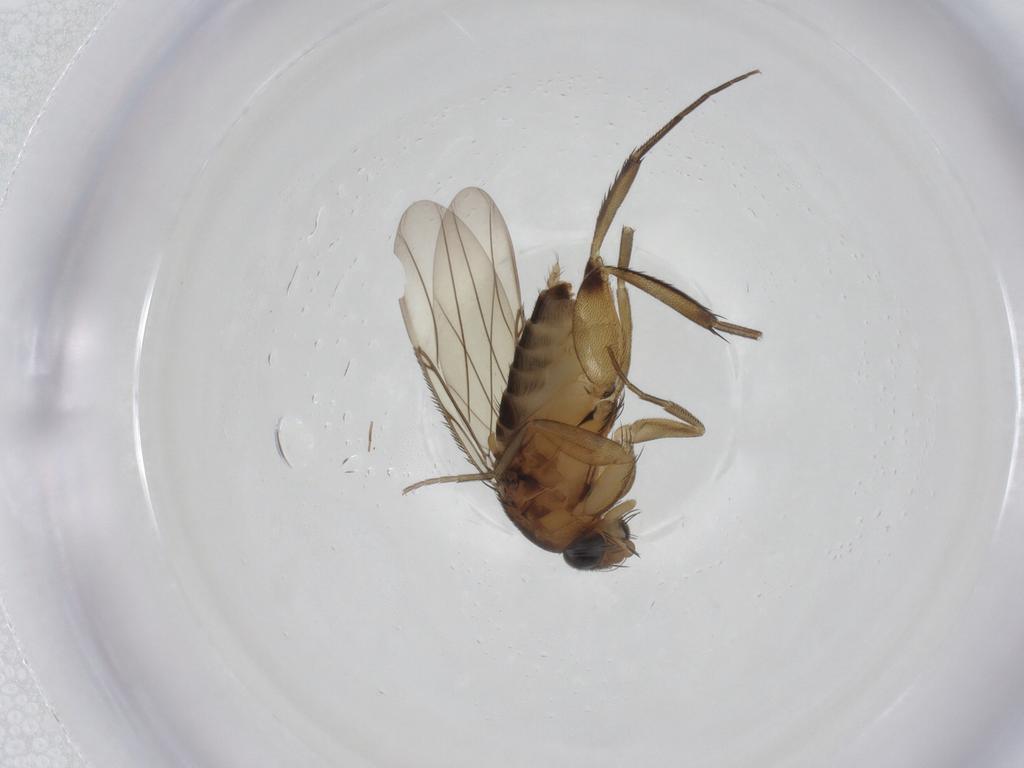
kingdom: Animalia
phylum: Arthropoda
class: Insecta
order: Diptera
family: Phoridae
